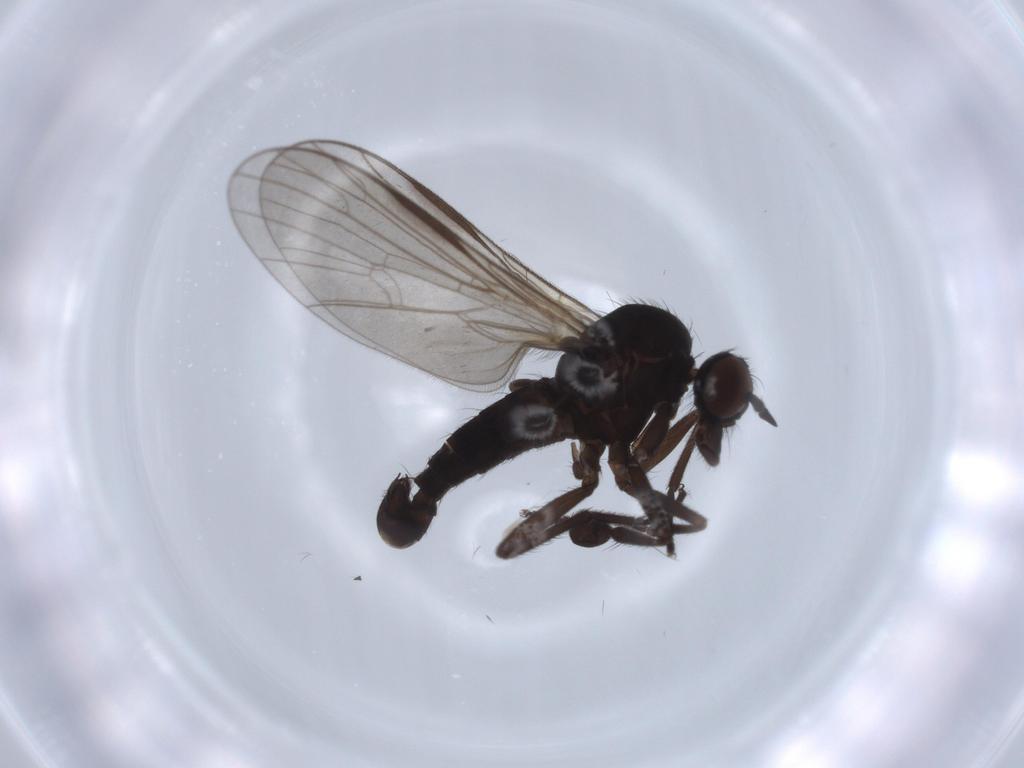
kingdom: Animalia
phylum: Arthropoda
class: Insecta
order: Diptera
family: Empididae
